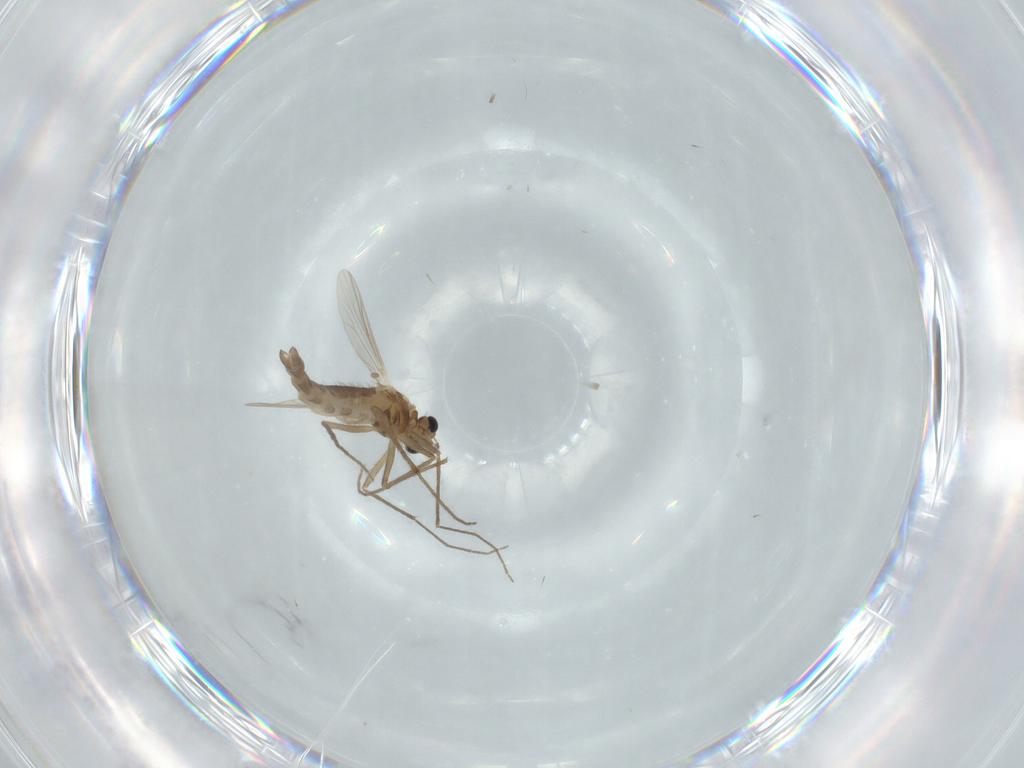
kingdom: Animalia
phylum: Arthropoda
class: Insecta
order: Diptera
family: Chironomidae
